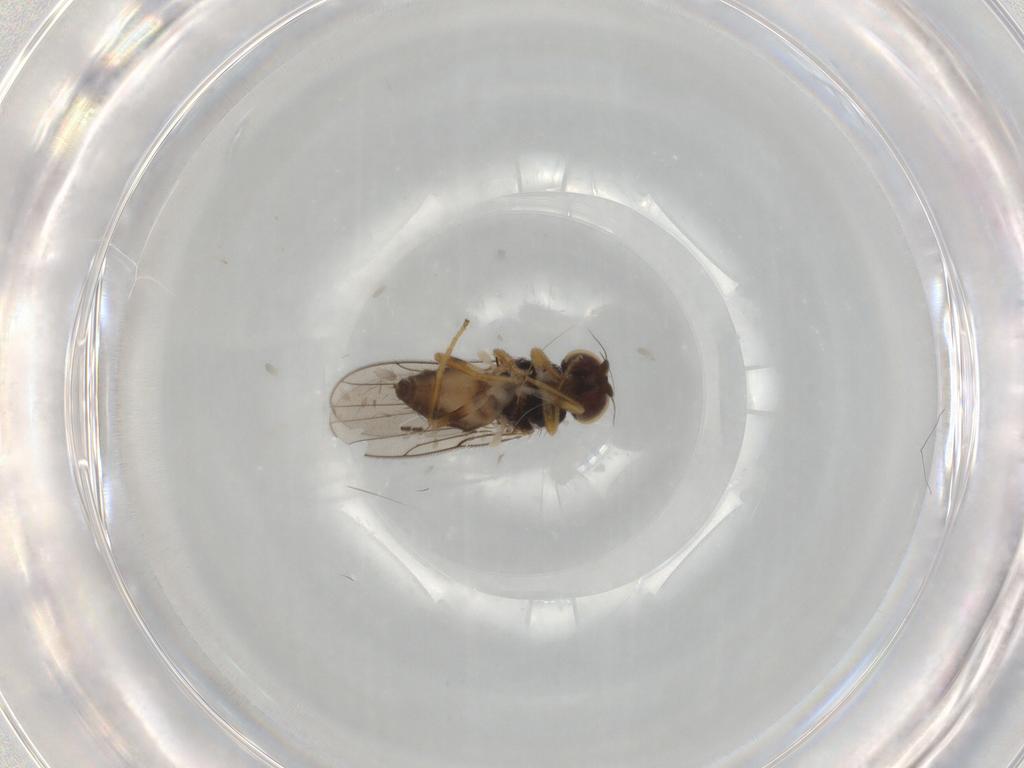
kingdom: Animalia
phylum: Arthropoda
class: Insecta
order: Diptera
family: Chloropidae
